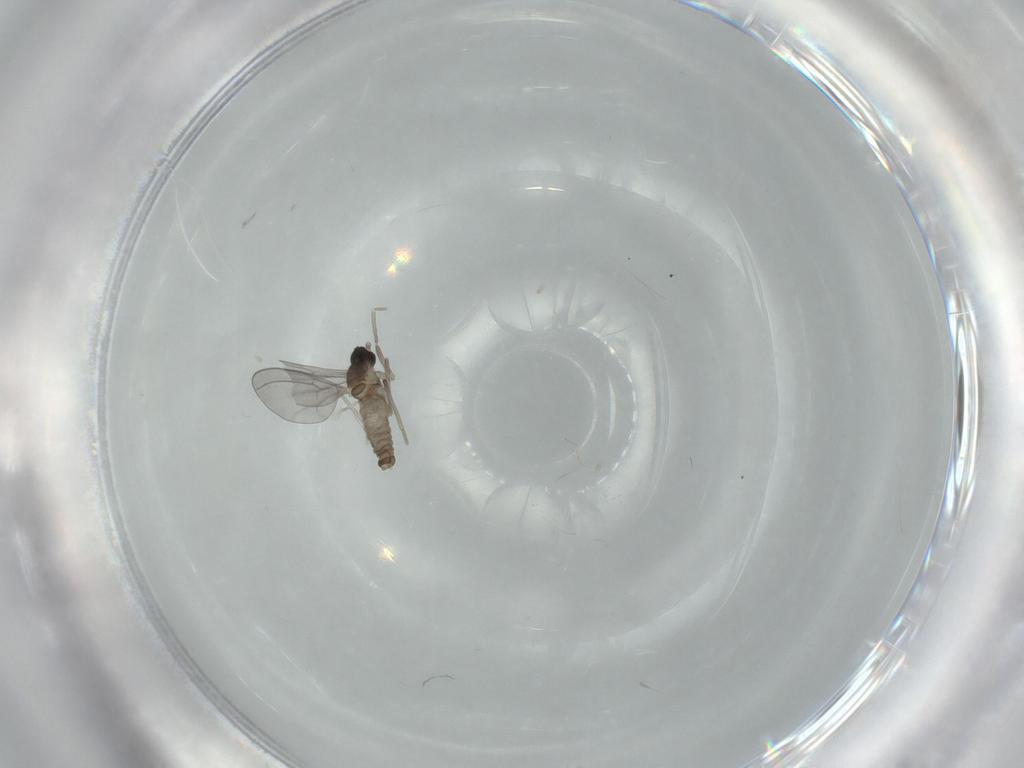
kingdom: Animalia
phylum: Arthropoda
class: Insecta
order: Diptera
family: Cecidomyiidae
